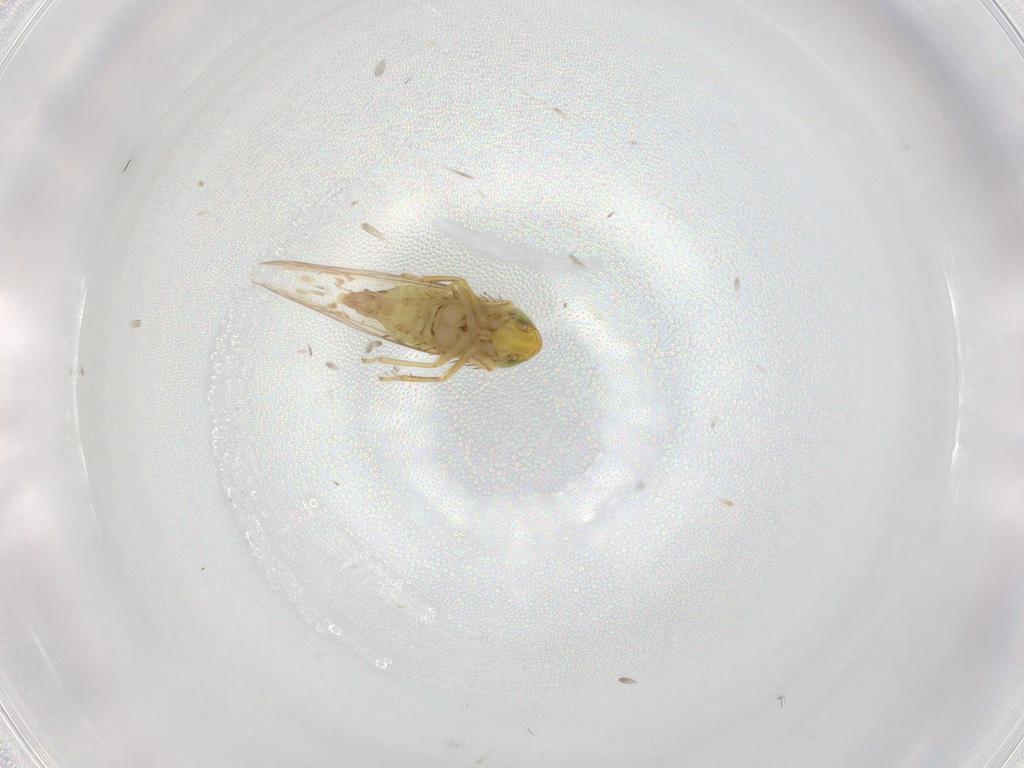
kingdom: Animalia
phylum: Arthropoda
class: Insecta
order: Hemiptera
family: Cicadellidae
